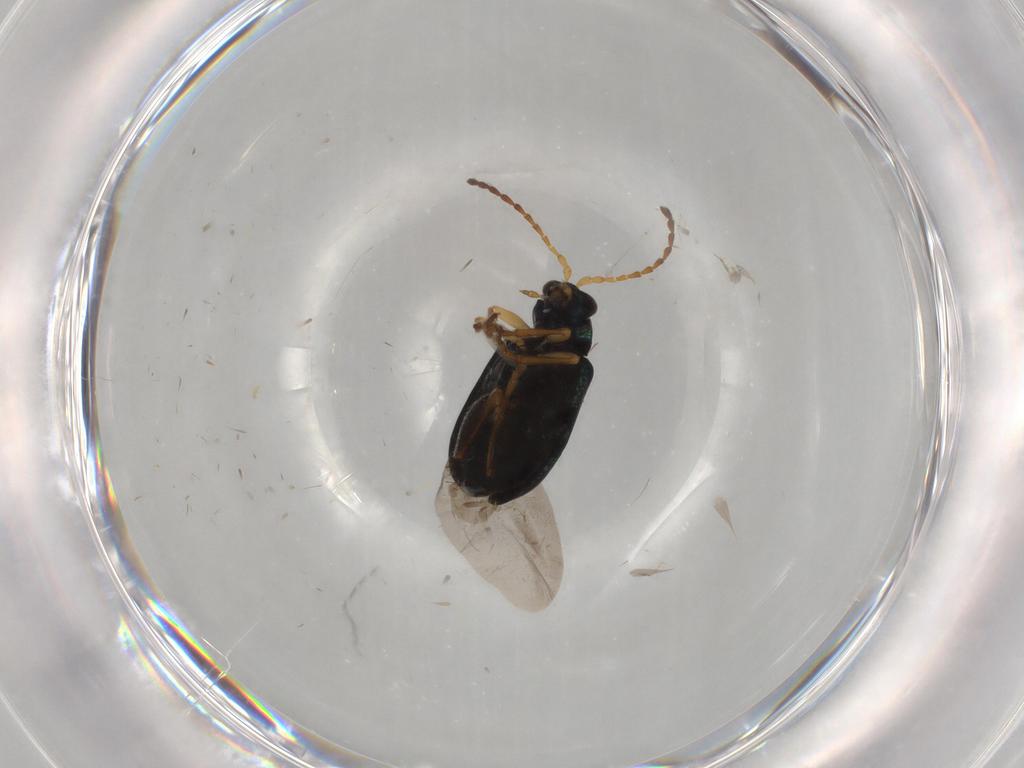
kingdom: Animalia
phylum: Arthropoda
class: Insecta
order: Coleoptera
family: Chrysomelidae
